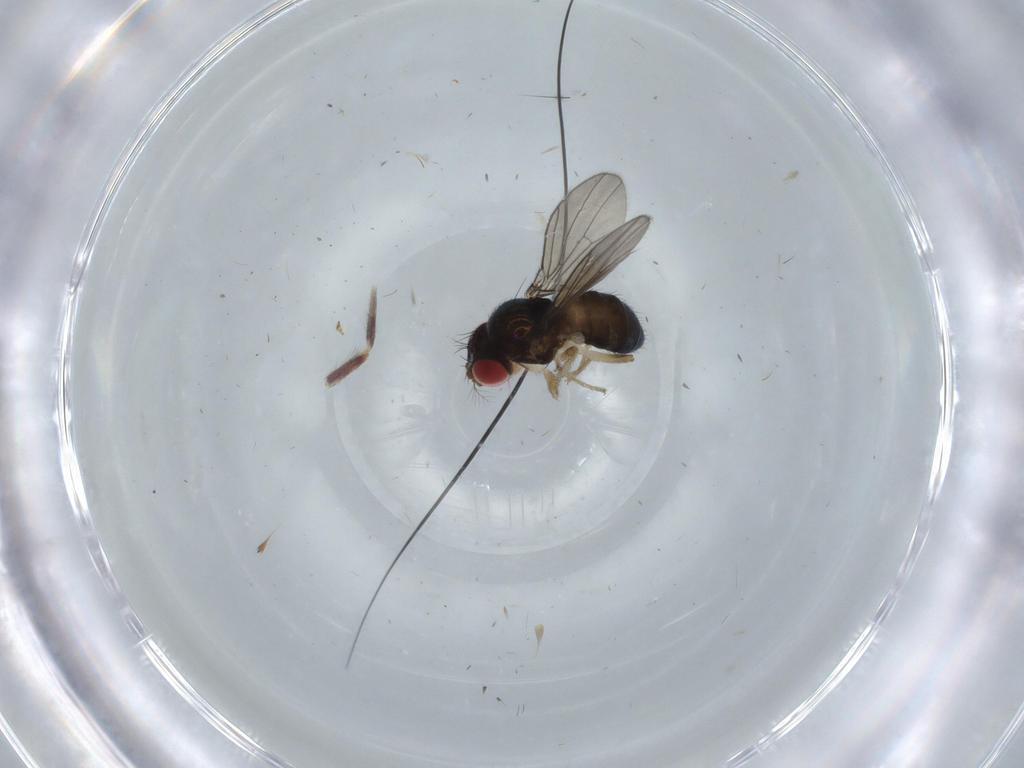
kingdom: Animalia
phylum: Arthropoda
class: Insecta
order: Diptera
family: Drosophilidae
